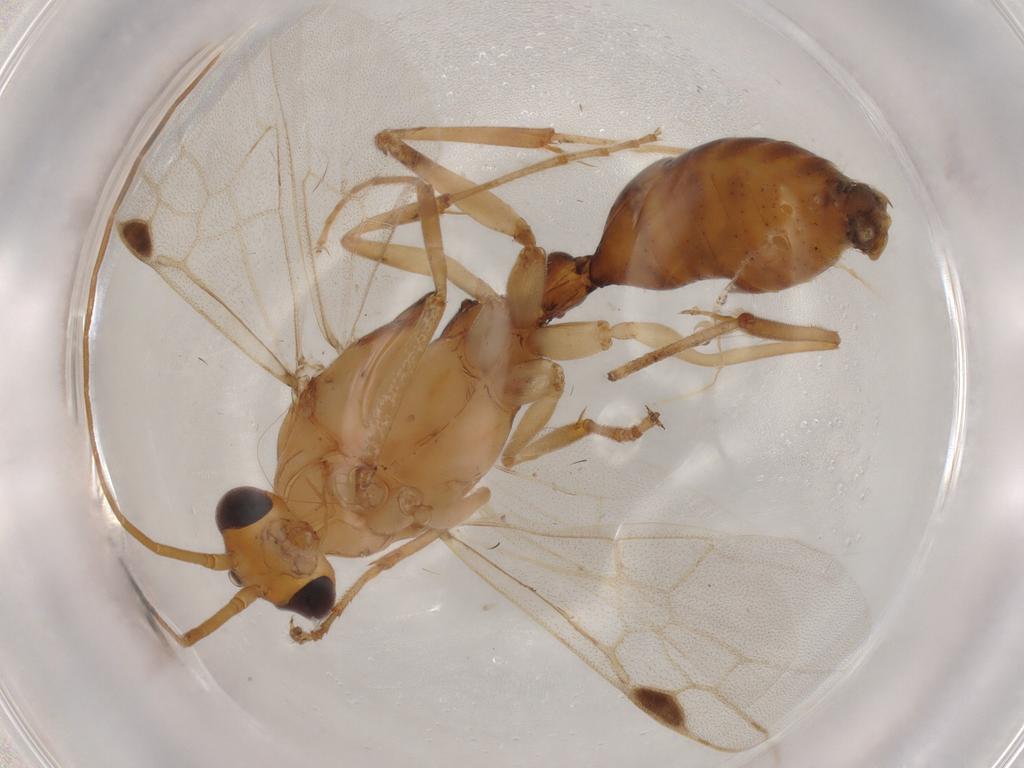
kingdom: Animalia
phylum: Arthropoda
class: Insecta
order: Hymenoptera
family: Formicidae
